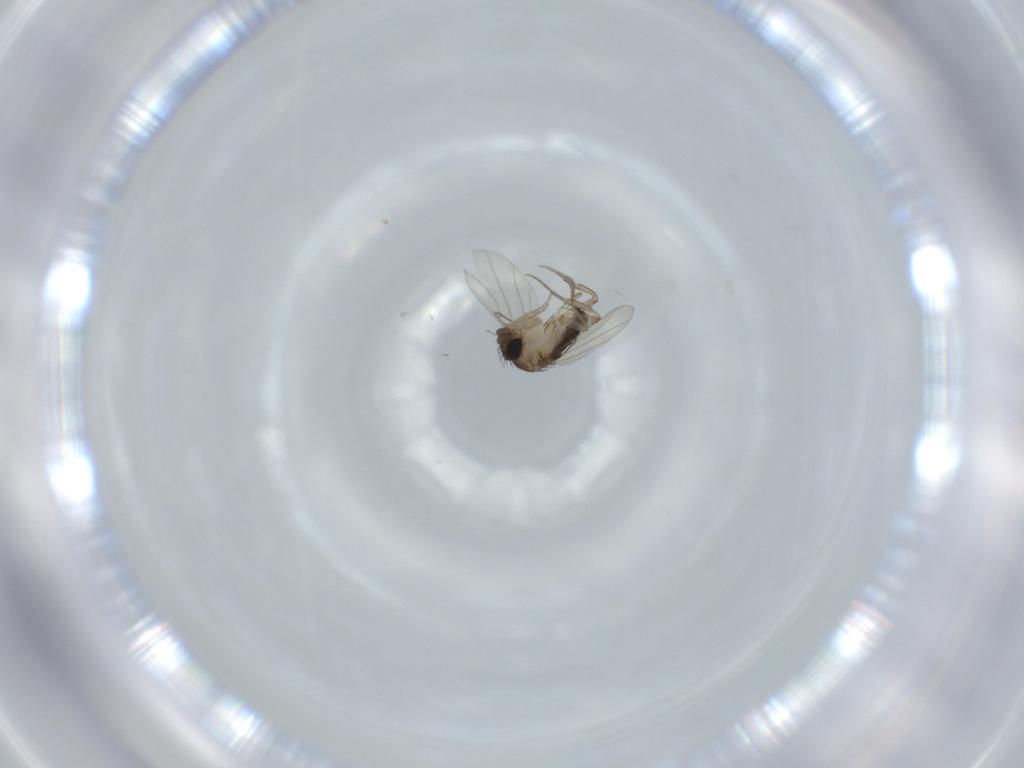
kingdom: Animalia
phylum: Arthropoda
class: Insecta
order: Diptera
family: Phoridae
